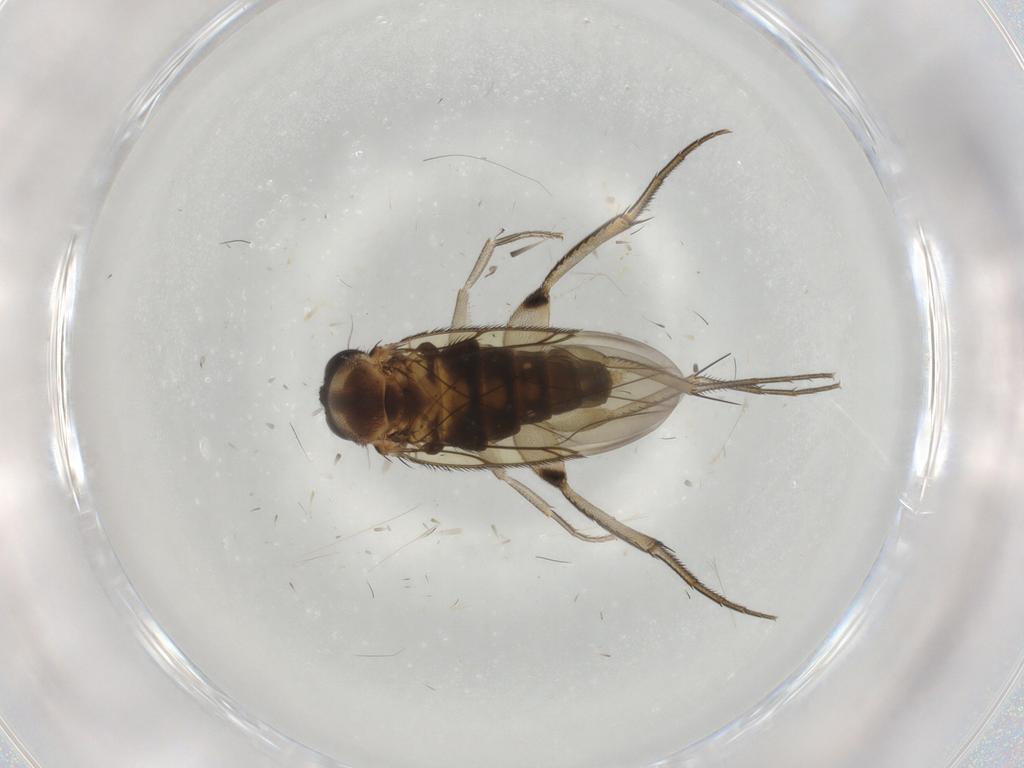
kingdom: Animalia
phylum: Arthropoda
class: Insecta
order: Diptera
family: Phoridae
